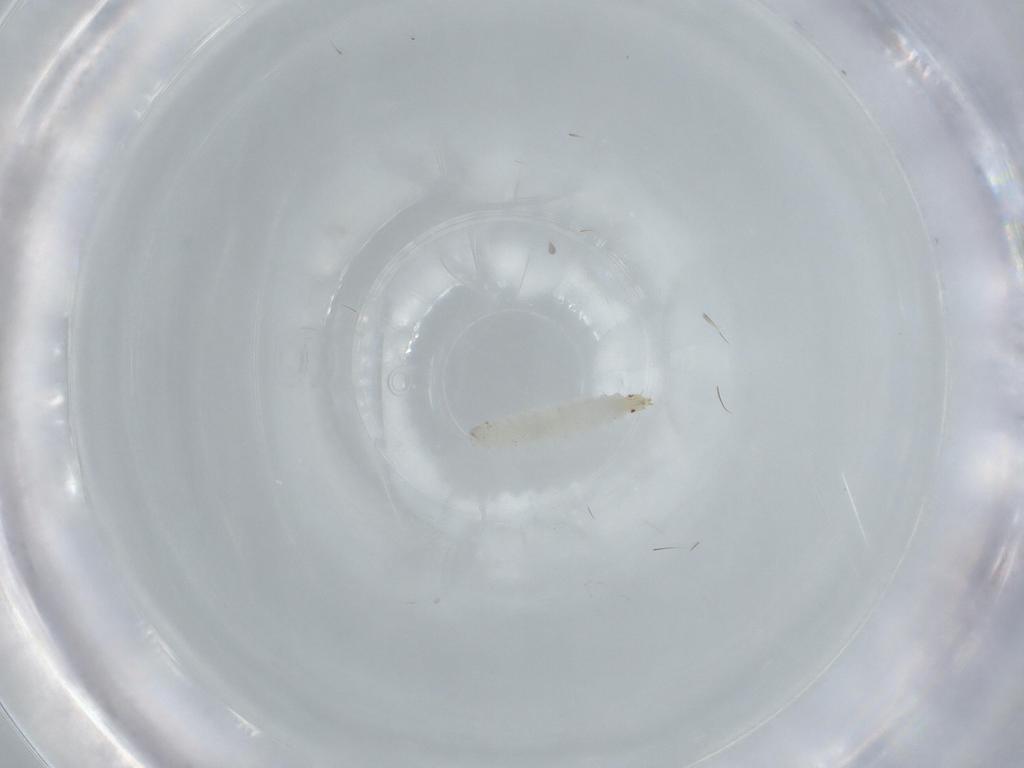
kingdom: Animalia
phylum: Arthropoda
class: Insecta
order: Diptera
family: Stratiomyidae
